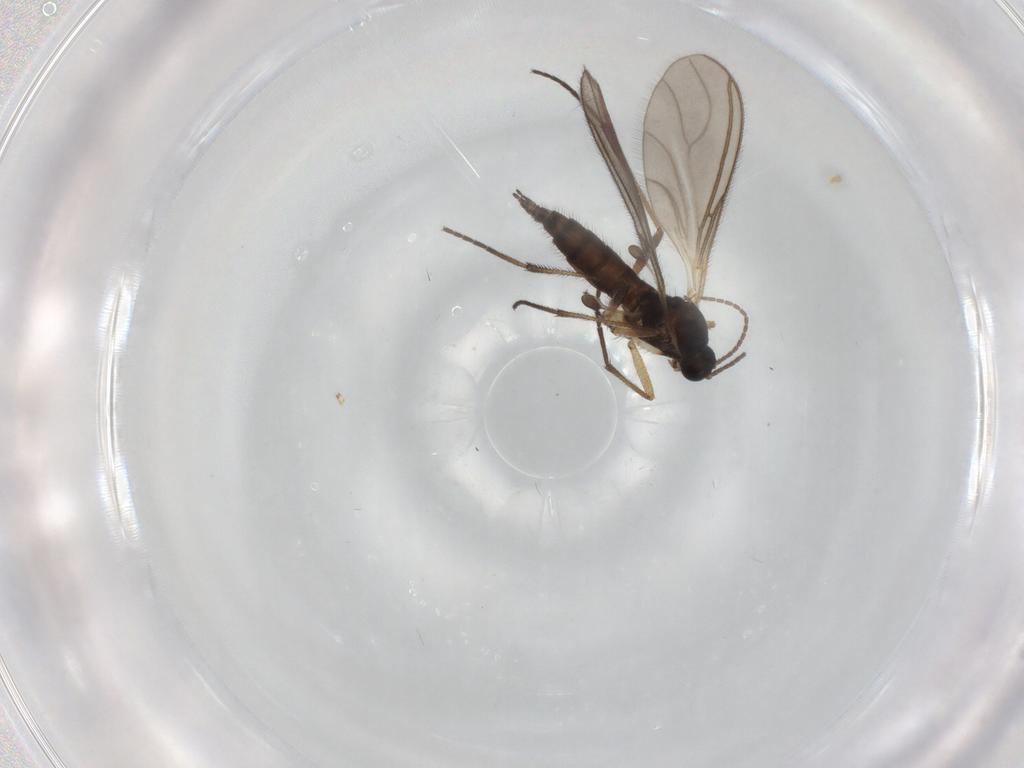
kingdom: Animalia
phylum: Arthropoda
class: Insecta
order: Diptera
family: Sciaridae
